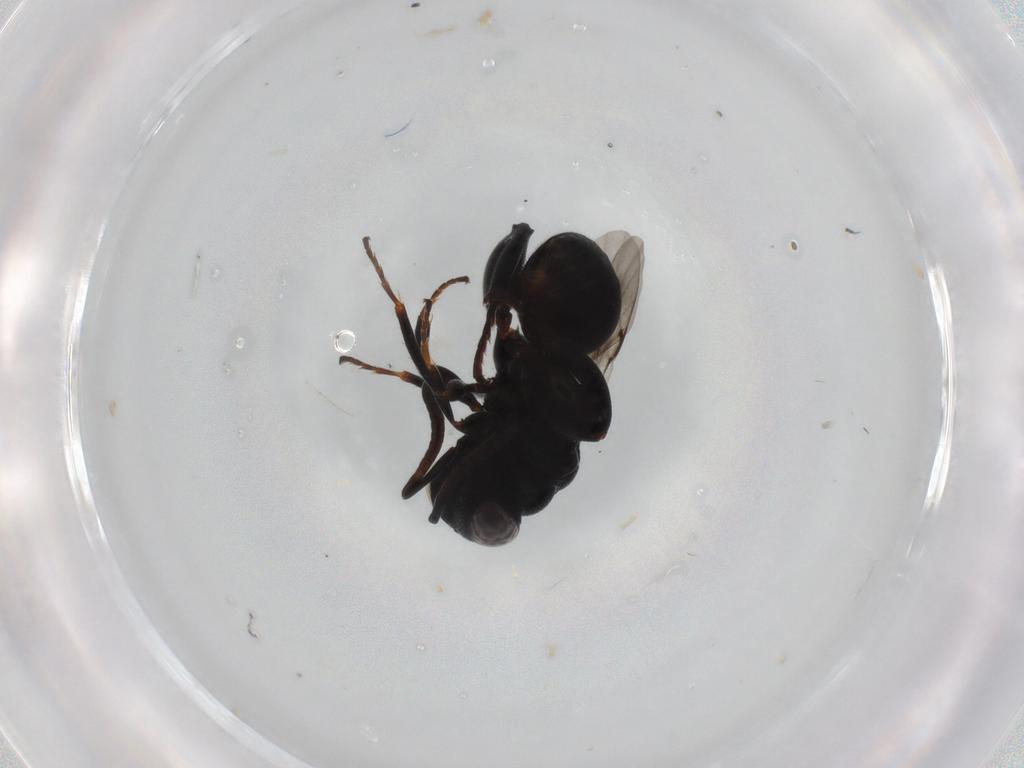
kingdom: Animalia
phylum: Arthropoda
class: Insecta
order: Hymenoptera
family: Chalcididae
